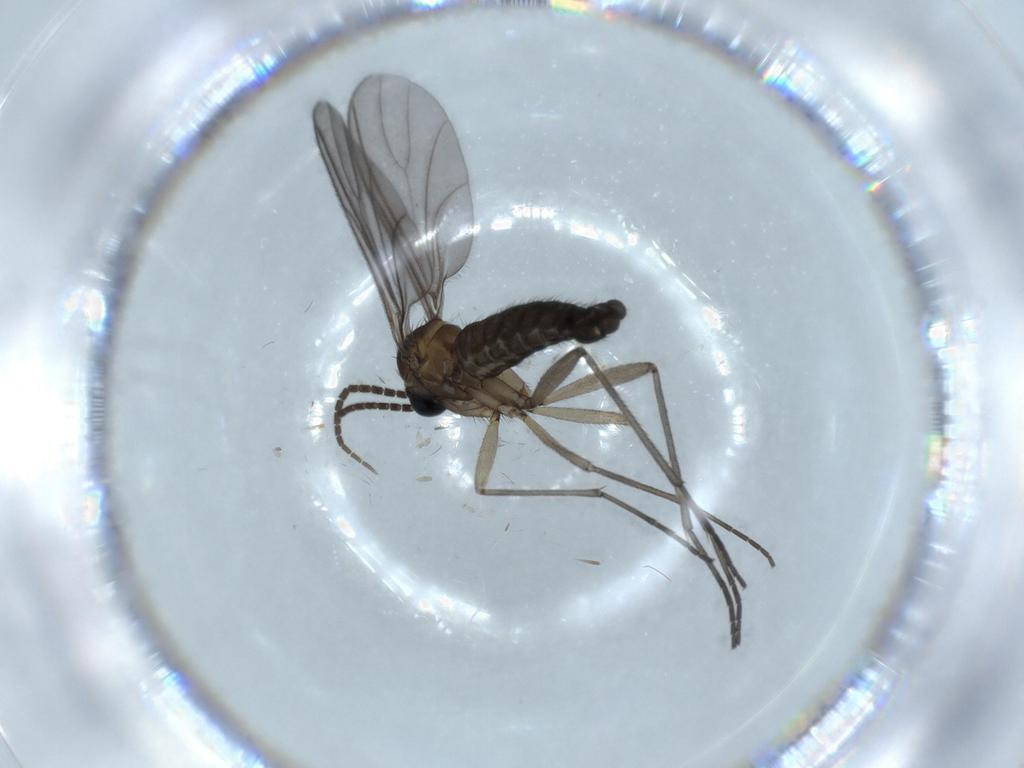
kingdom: Animalia
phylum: Arthropoda
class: Insecta
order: Diptera
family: Sciaridae
